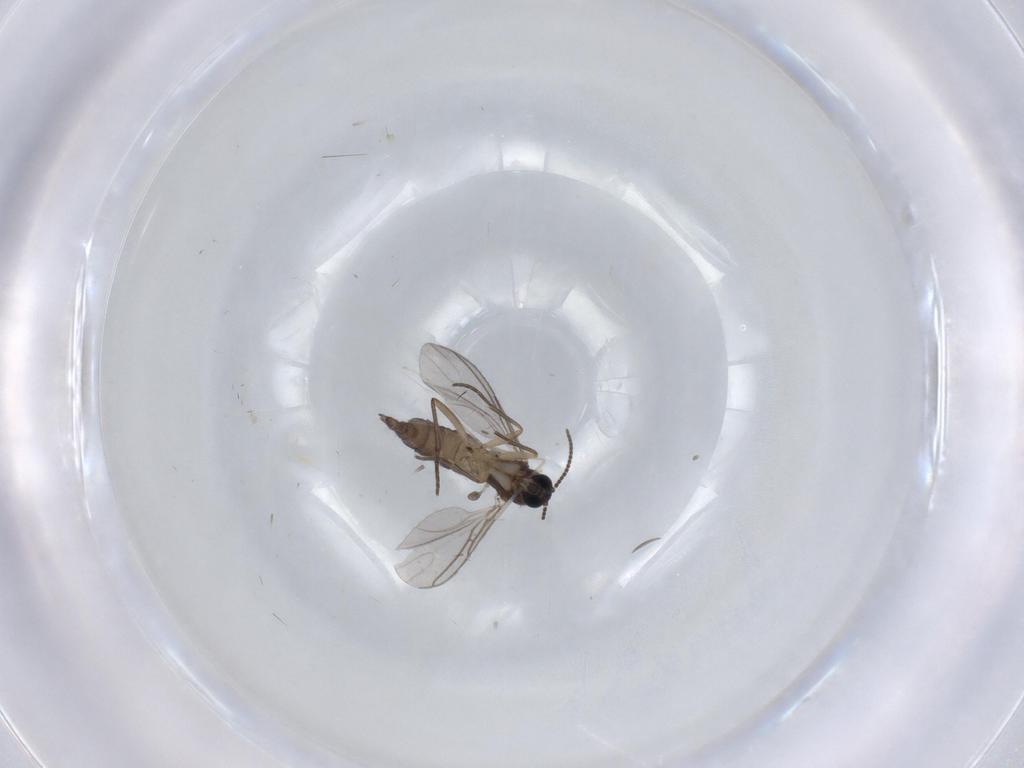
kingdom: Animalia
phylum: Arthropoda
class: Insecta
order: Diptera
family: Sciaridae
